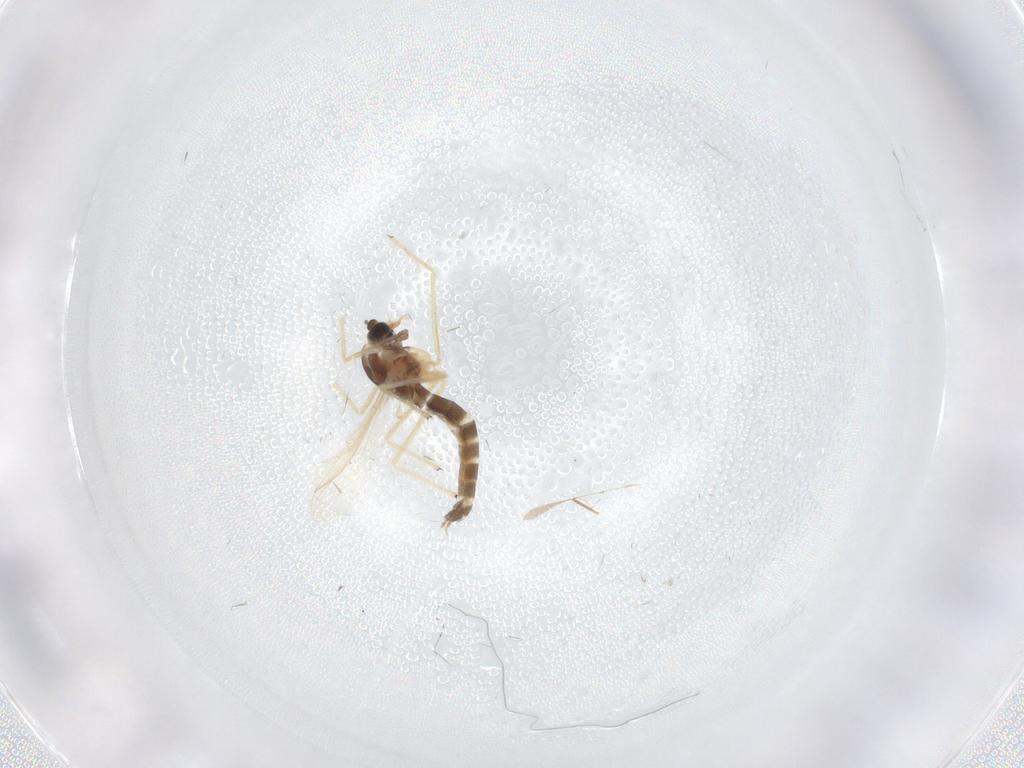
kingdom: Animalia
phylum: Arthropoda
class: Insecta
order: Diptera
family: Chironomidae
